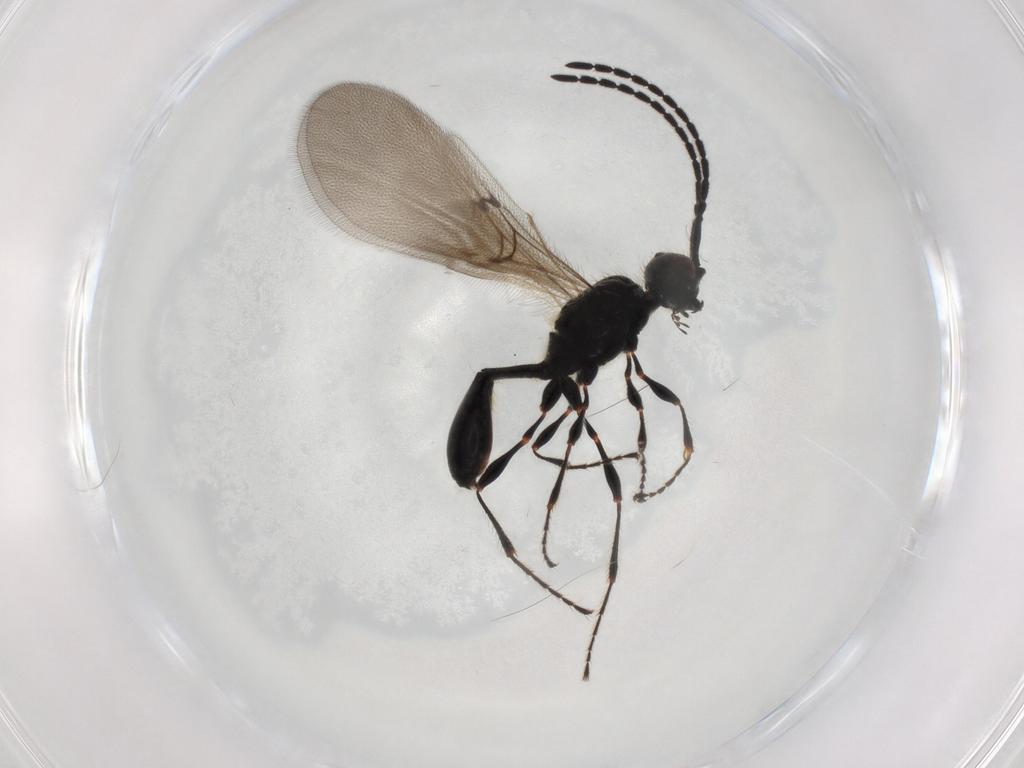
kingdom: Animalia
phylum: Arthropoda
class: Insecta
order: Hymenoptera
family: Diapriidae
